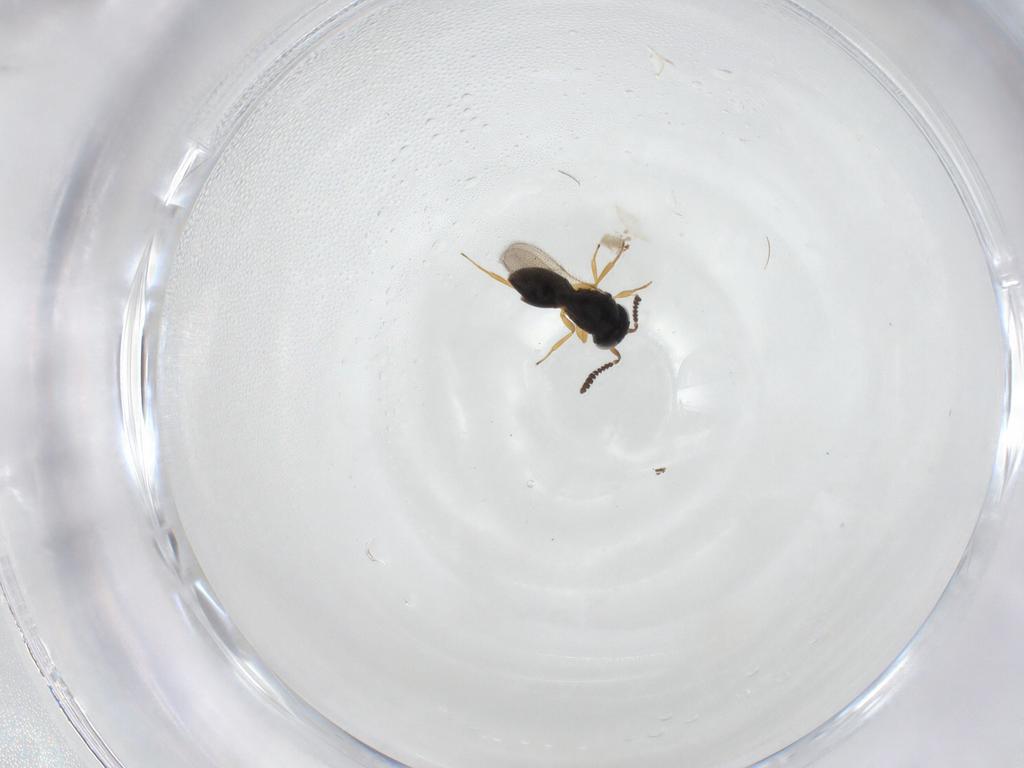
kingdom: Animalia
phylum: Arthropoda
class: Insecta
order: Hymenoptera
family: Scelionidae
